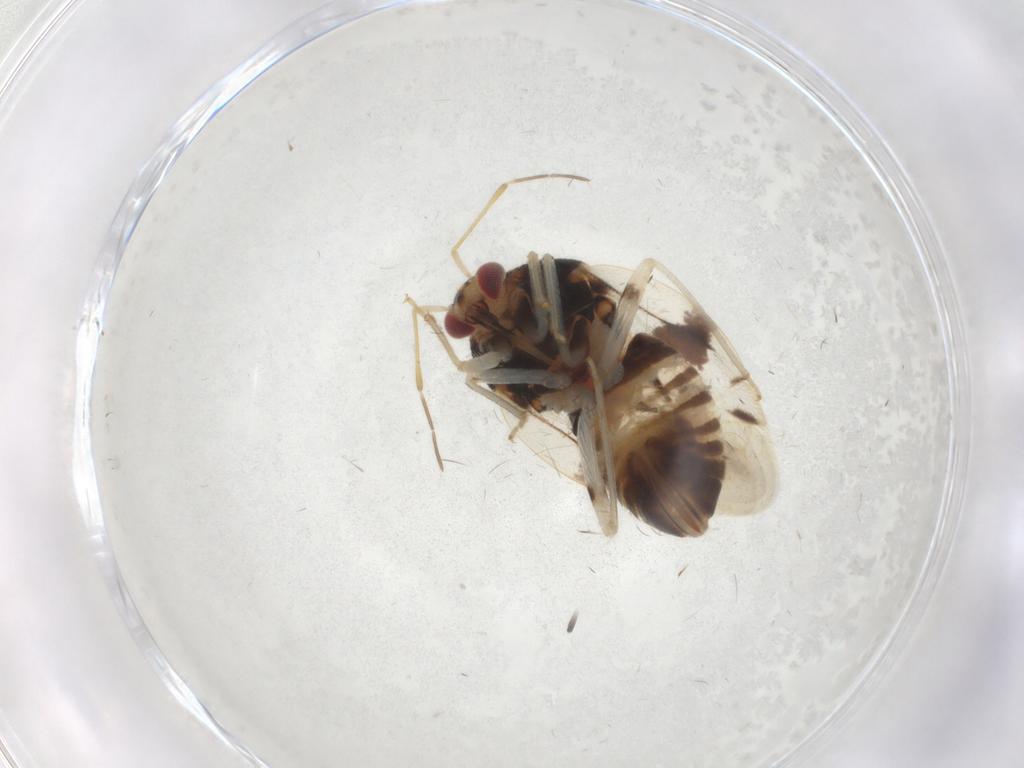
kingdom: Animalia
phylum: Arthropoda
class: Insecta
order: Hemiptera
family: Miridae
